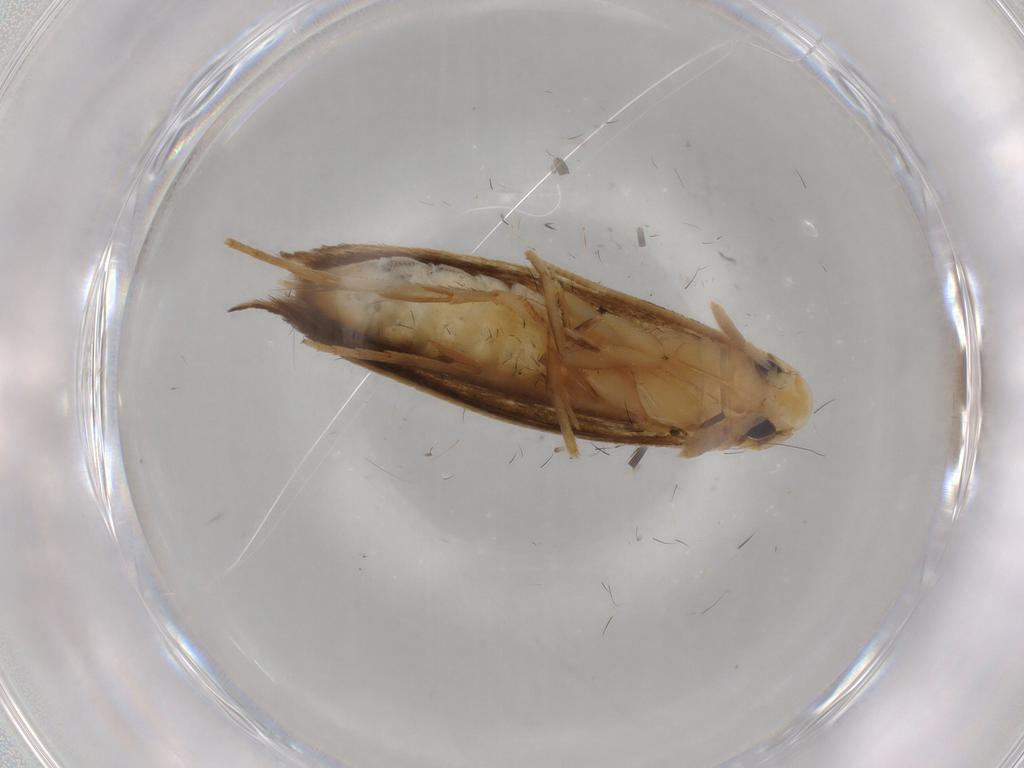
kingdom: Animalia
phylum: Arthropoda
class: Insecta
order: Lepidoptera
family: Tineidae
